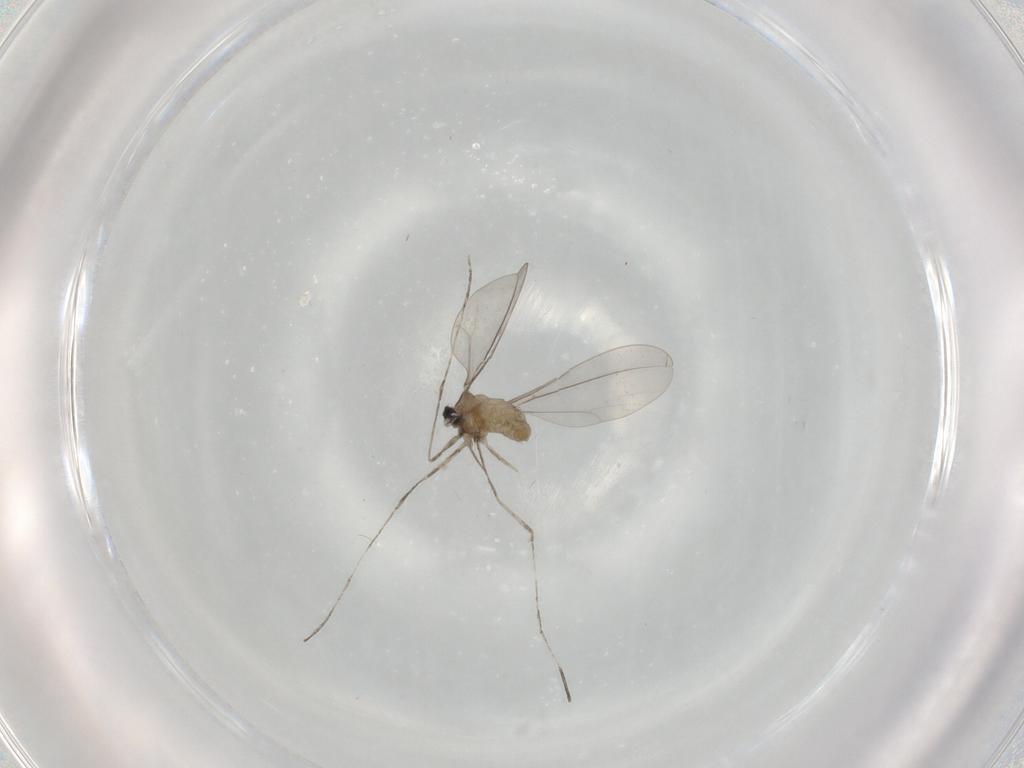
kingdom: Animalia
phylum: Arthropoda
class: Insecta
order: Diptera
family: Cecidomyiidae
